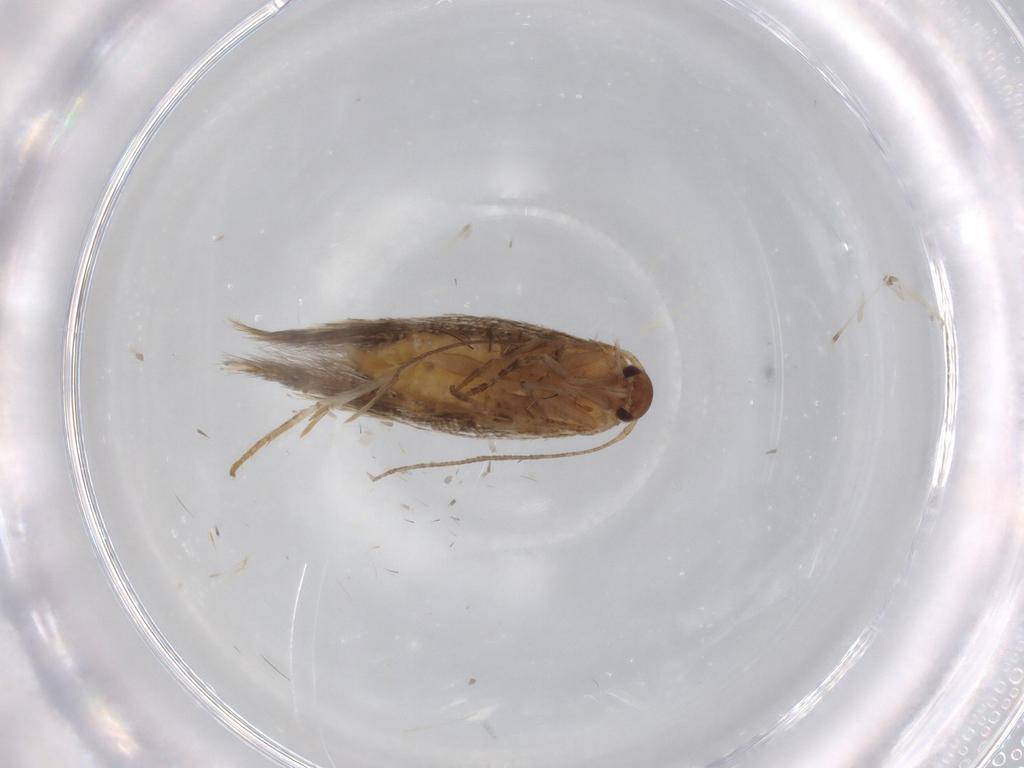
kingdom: Animalia
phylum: Arthropoda
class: Insecta
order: Lepidoptera
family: Elachistidae
